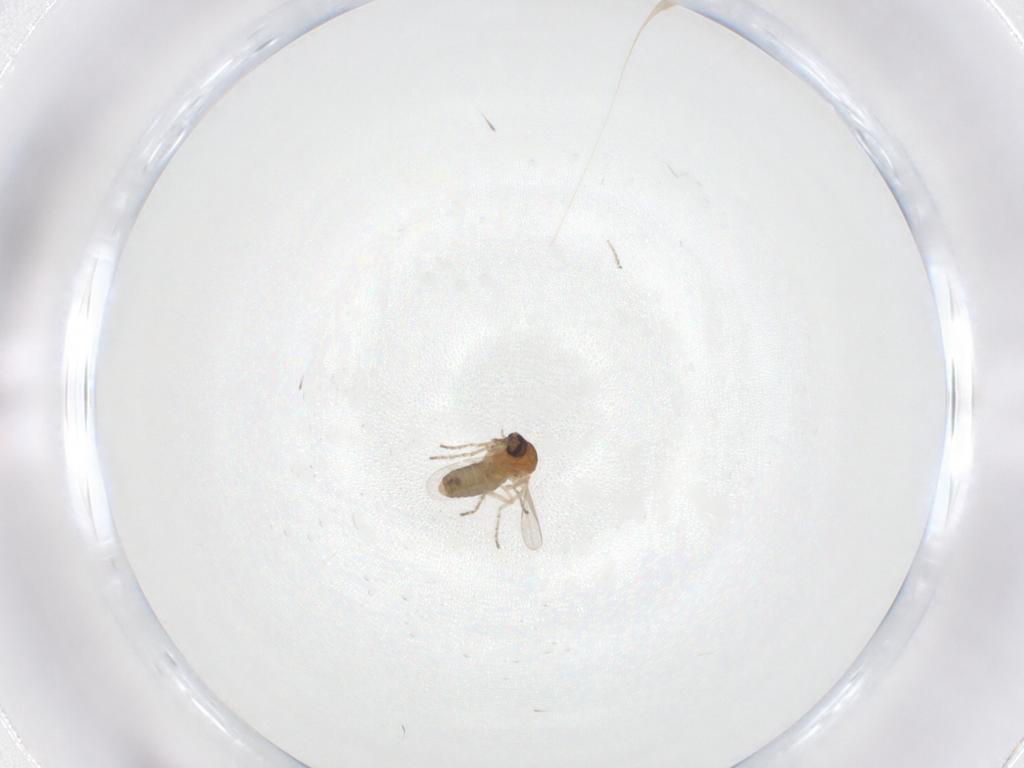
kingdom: Animalia
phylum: Arthropoda
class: Insecta
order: Diptera
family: Ceratopogonidae
